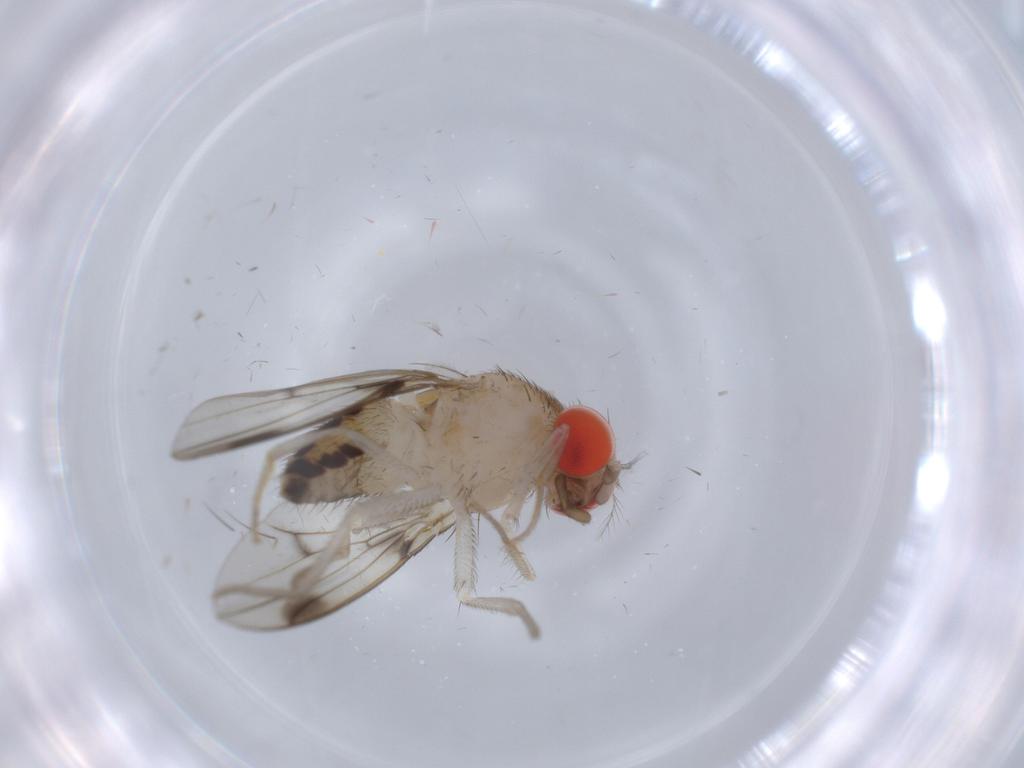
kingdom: Animalia
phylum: Arthropoda
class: Insecta
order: Diptera
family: Drosophilidae
